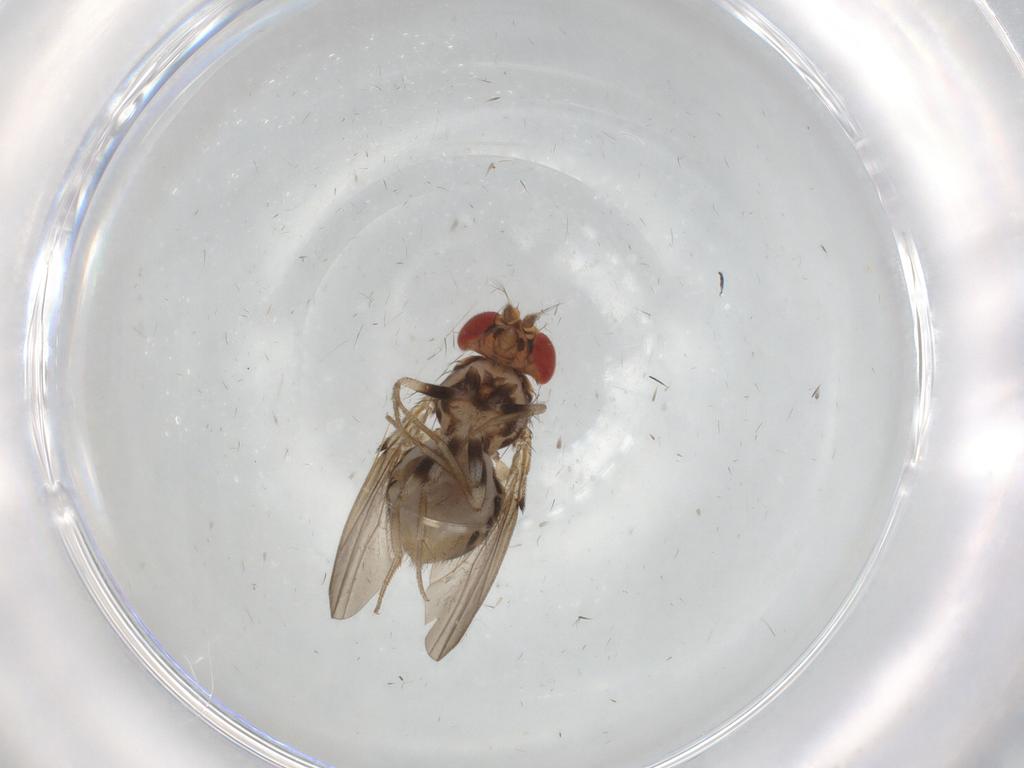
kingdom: Animalia
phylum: Arthropoda
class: Insecta
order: Diptera
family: Drosophilidae
